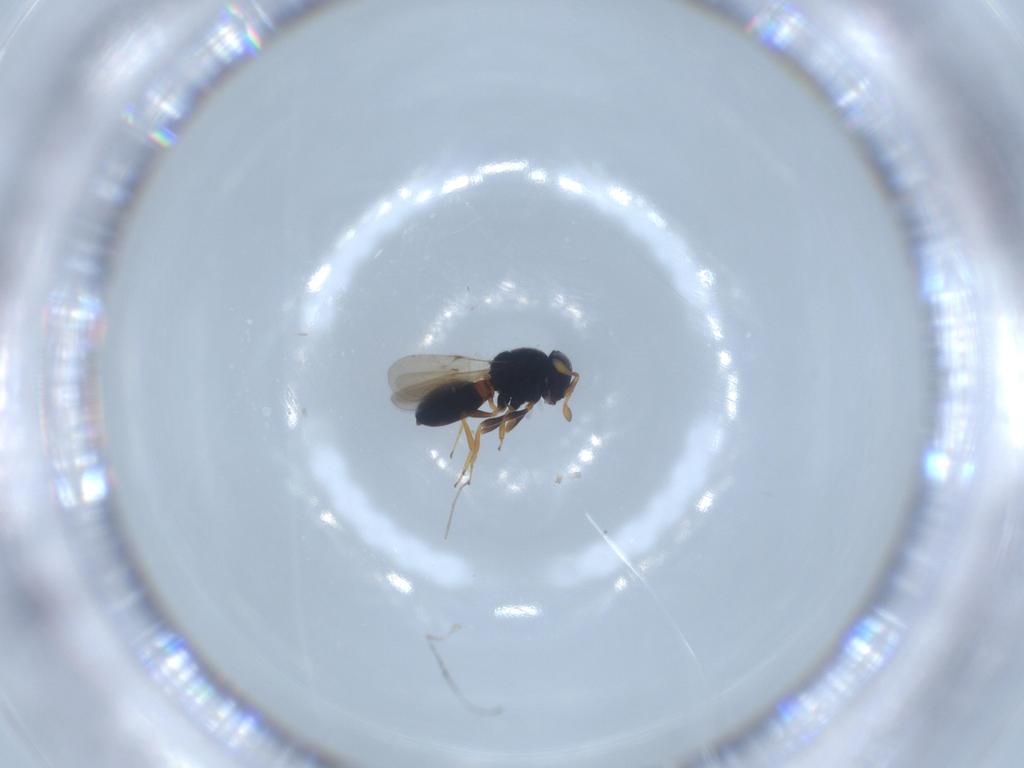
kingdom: Animalia
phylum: Arthropoda
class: Insecta
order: Hymenoptera
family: Scelionidae
